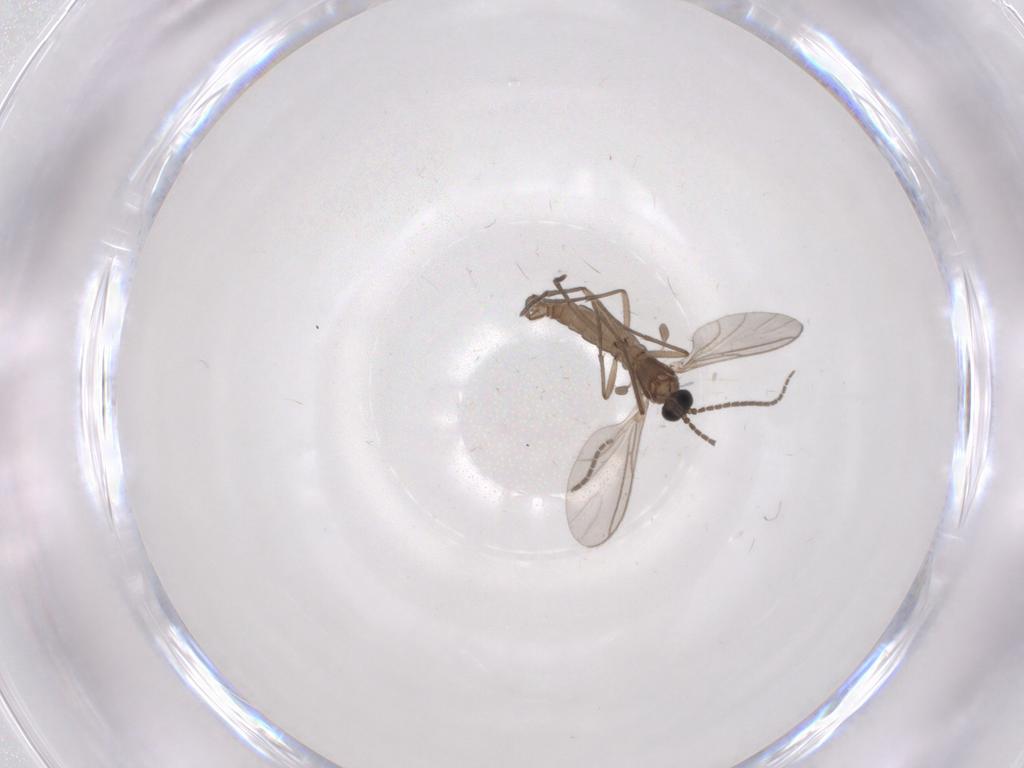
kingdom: Animalia
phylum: Arthropoda
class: Insecta
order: Diptera
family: Sciaridae
